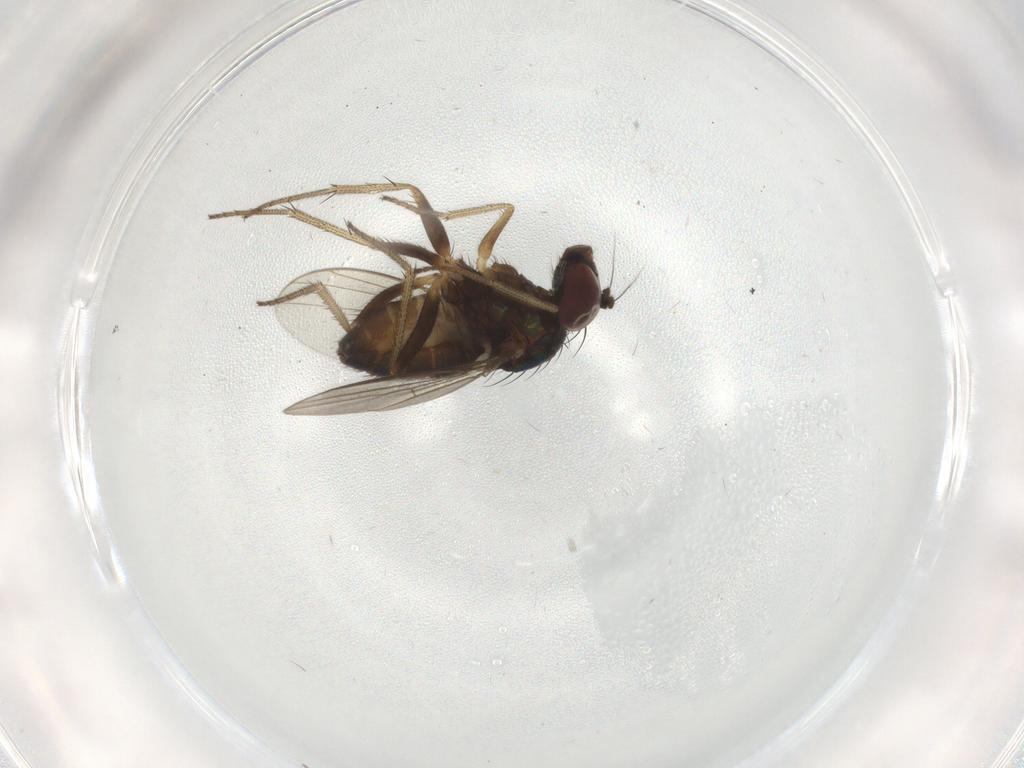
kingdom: Animalia
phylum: Arthropoda
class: Insecta
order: Diptera
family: Dolichopodidae
